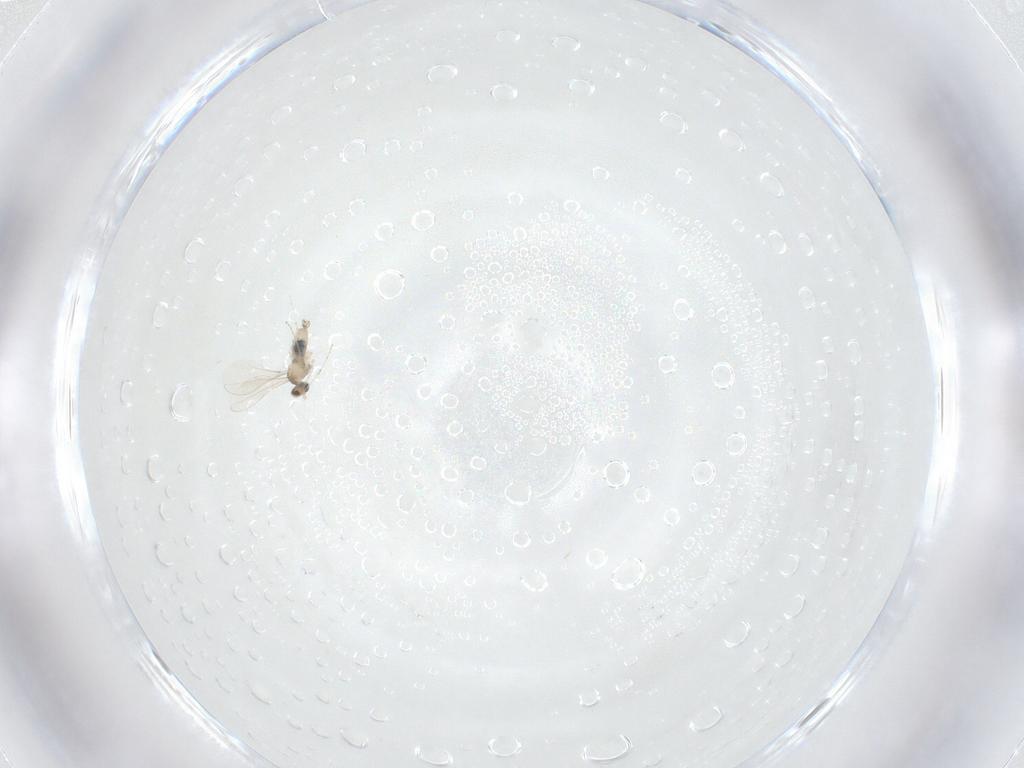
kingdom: Animalia
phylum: Arthropoda
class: Insecta
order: Diptera
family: Cecidomyiidae
